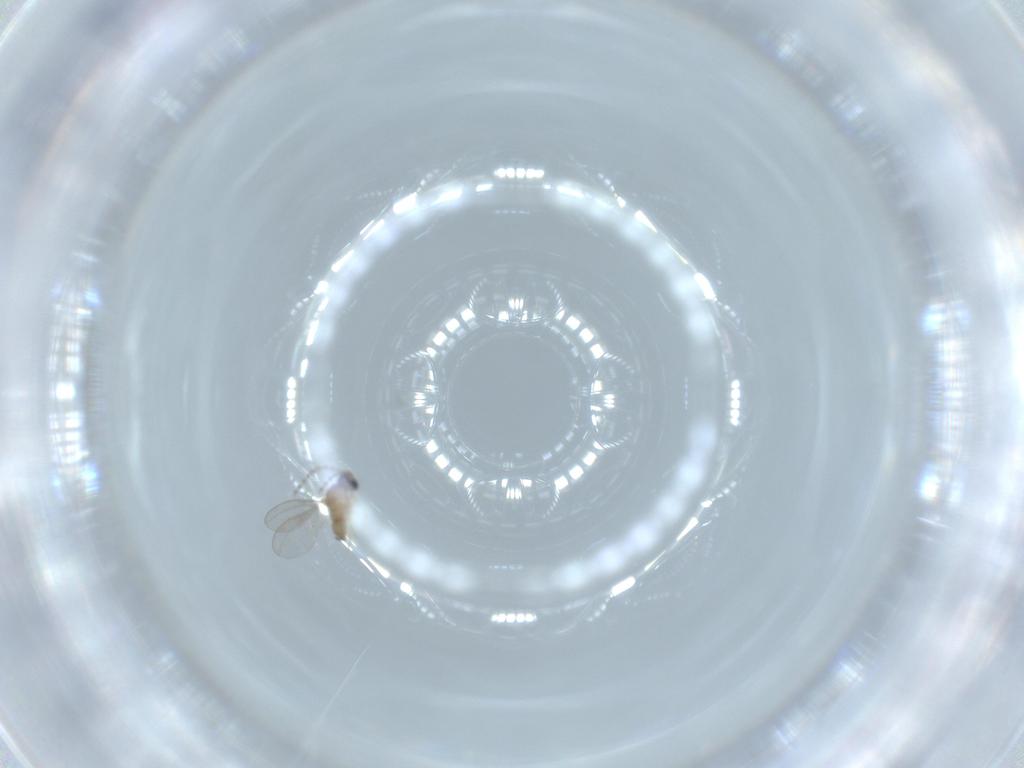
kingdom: Animalia
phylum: Arthropoda
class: Insecta
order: Diptera
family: Cecidomyiidae
